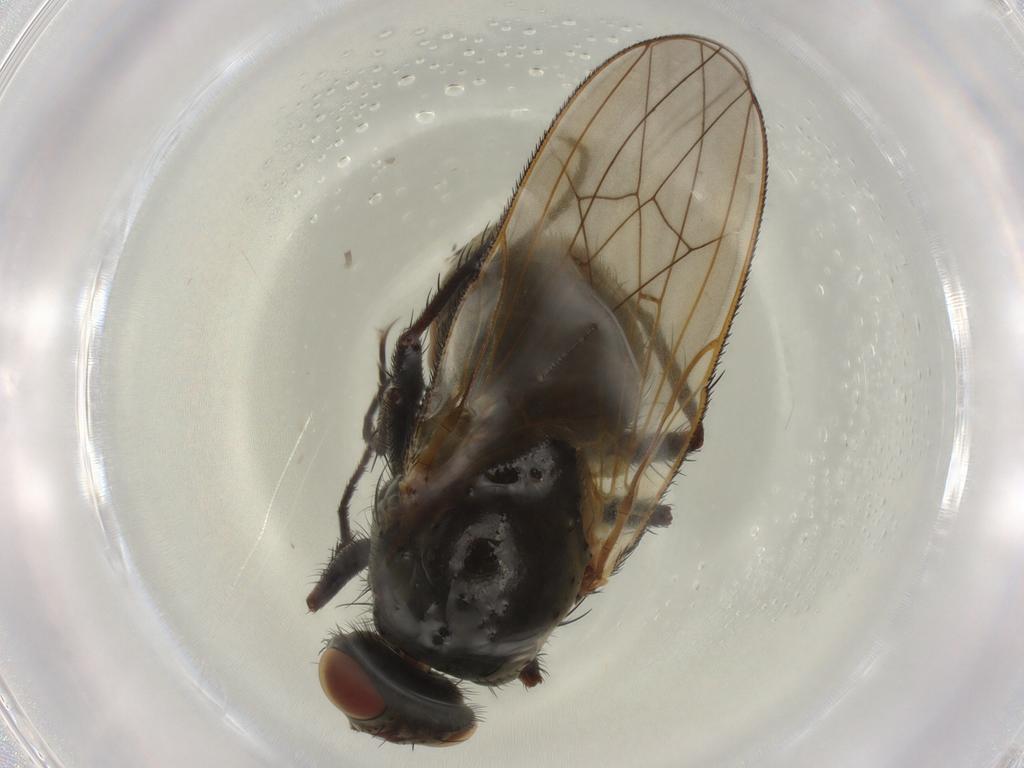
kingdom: Animalia
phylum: Arthropoda
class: Insecta
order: Diptera
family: Anthomyiidae
